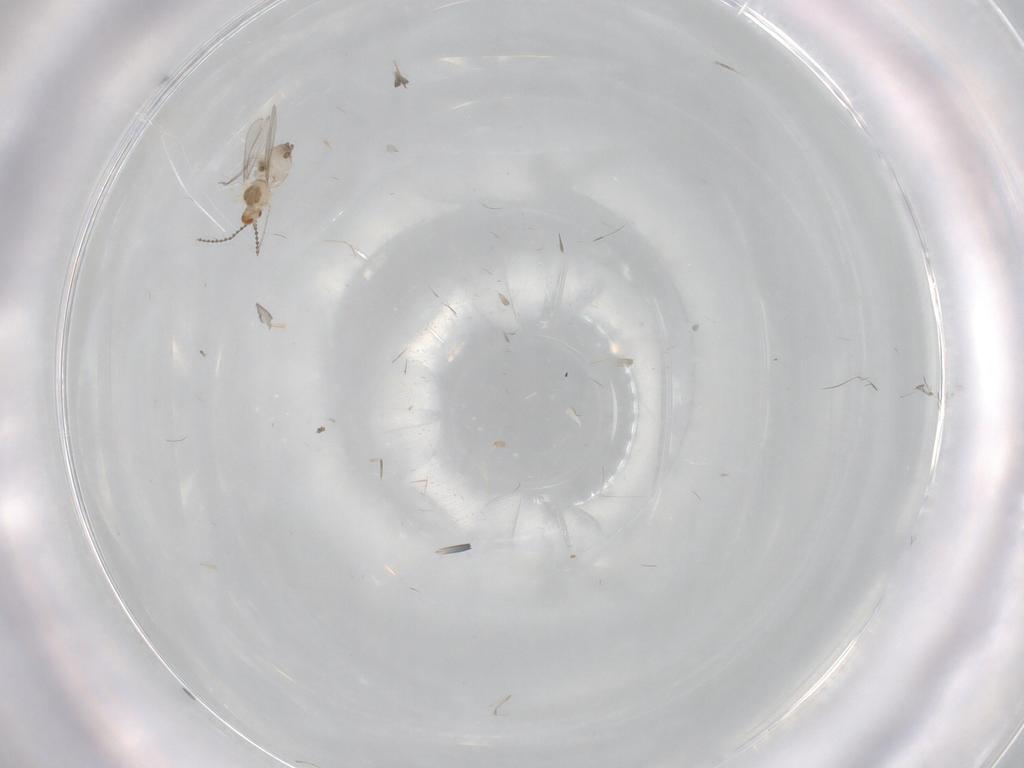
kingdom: Animalia
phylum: Arthropoda
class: Insecta
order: Diptera
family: Cecidomyiidae
